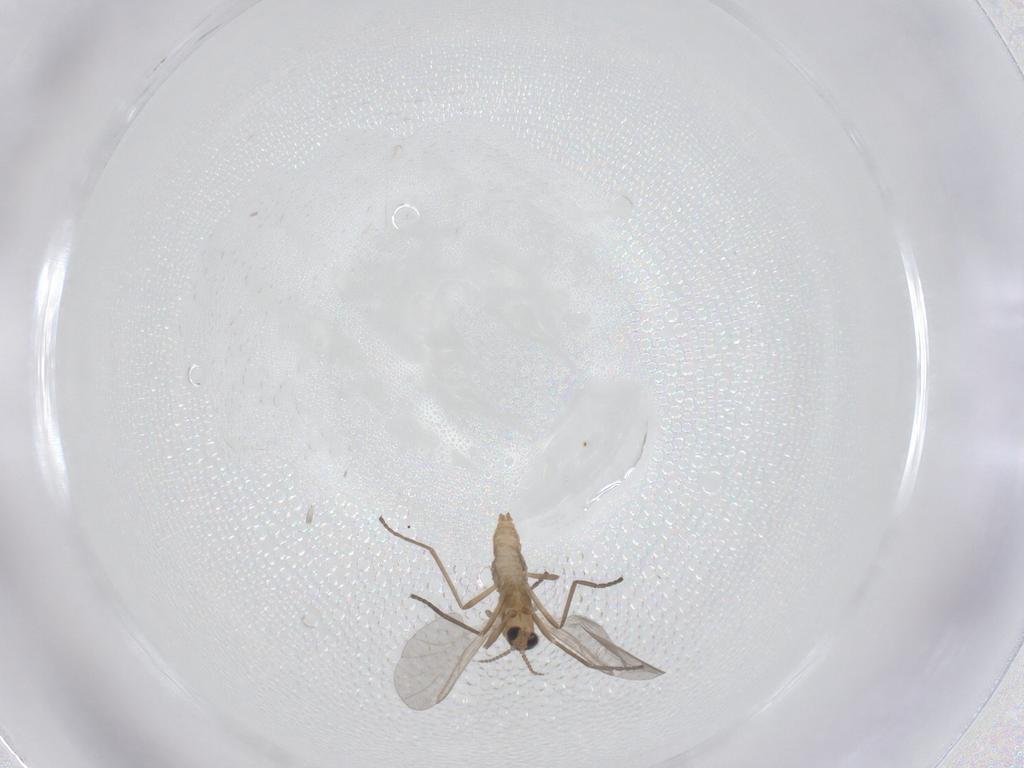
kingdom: Animalia
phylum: Arthropoda
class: Insecta
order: Diptera
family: Cecidomyiidae
